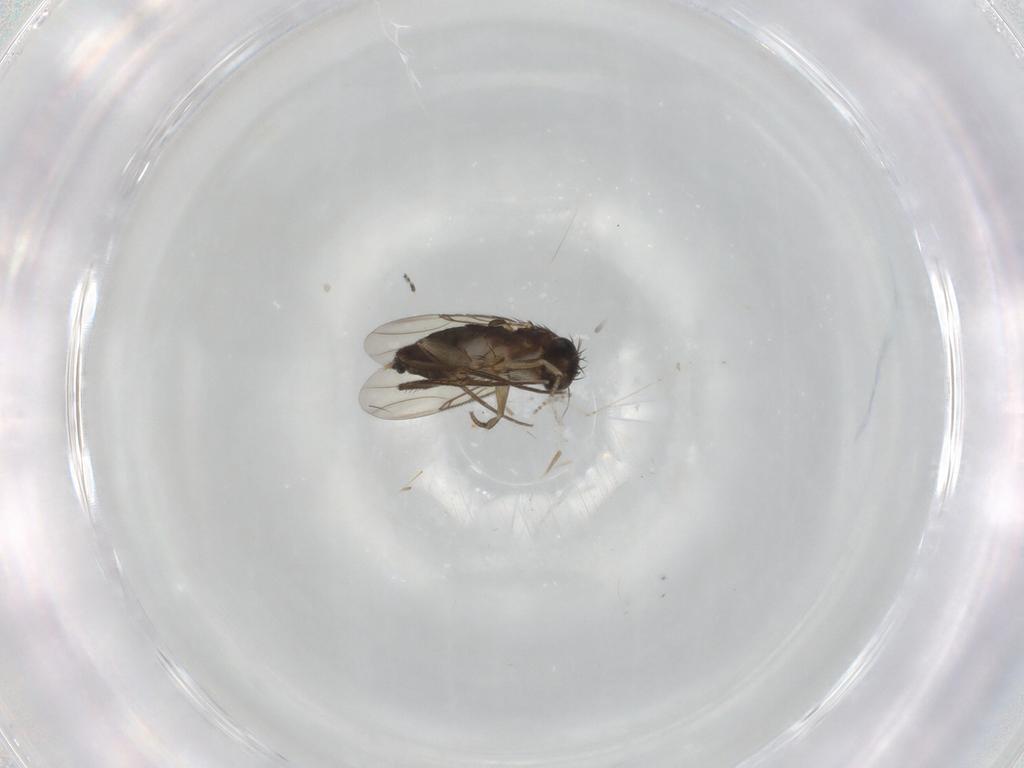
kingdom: Animalia
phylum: Arthropoda
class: Insecta
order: Diptera
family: Phoridae
